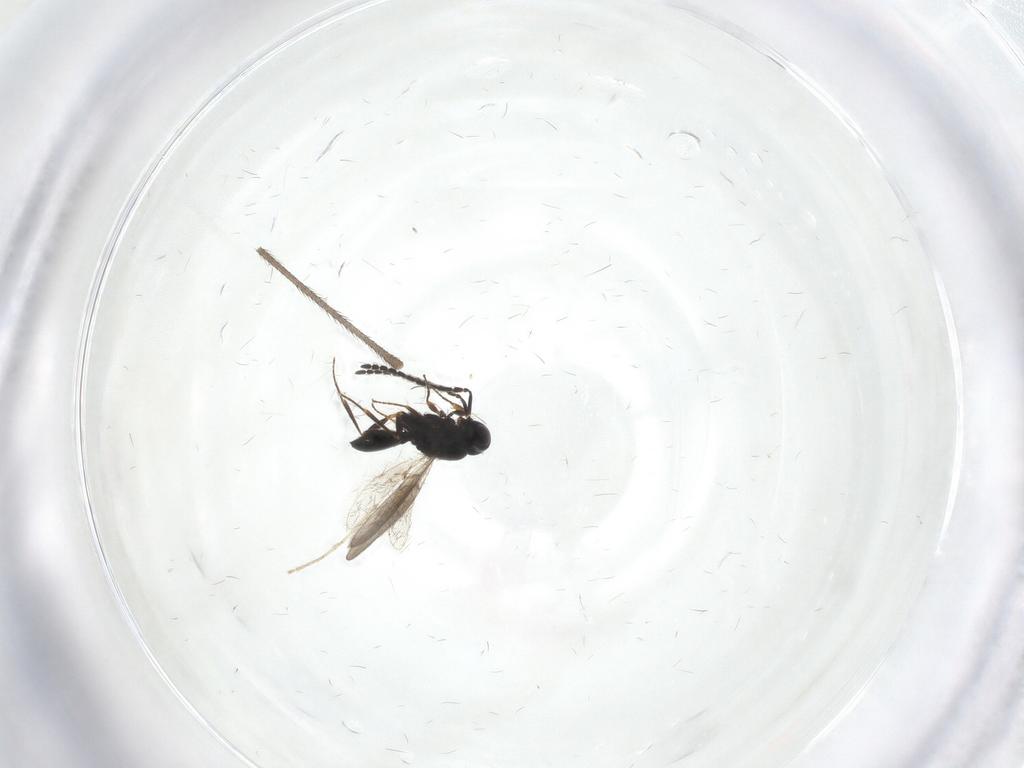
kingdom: Animalia
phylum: Arthropoda
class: Insecta
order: Hymenoptera
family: Scelionidae
